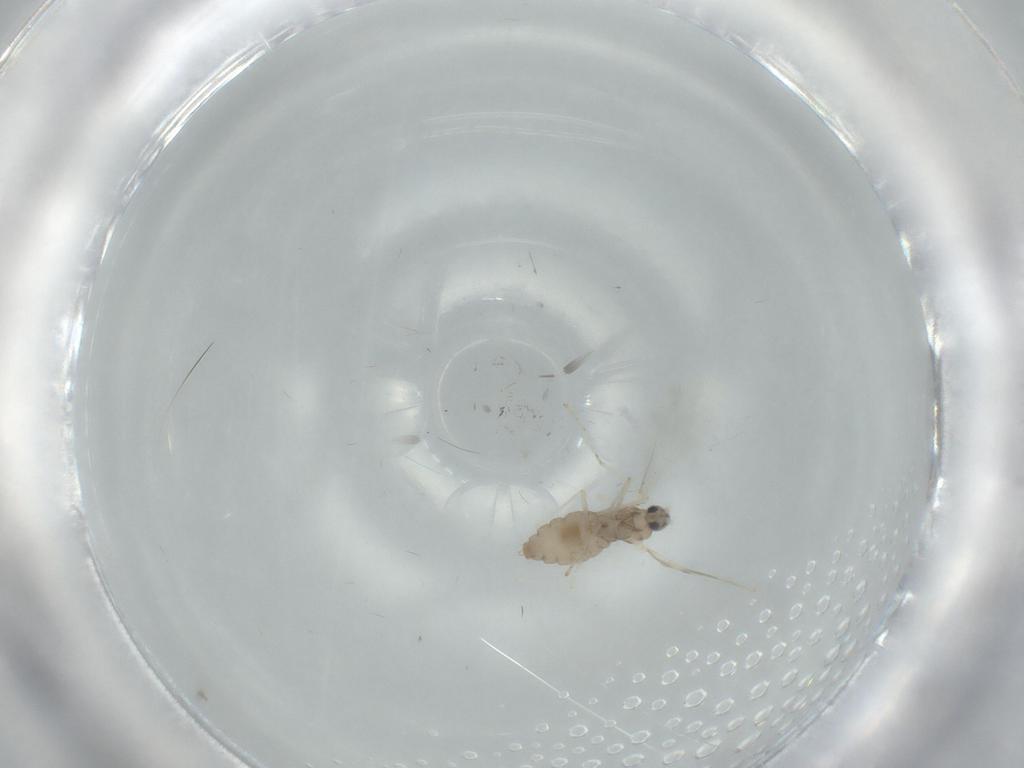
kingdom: Animalia
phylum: Arthropoda
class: Insecta
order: Diptera
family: Cecidomyiidae
